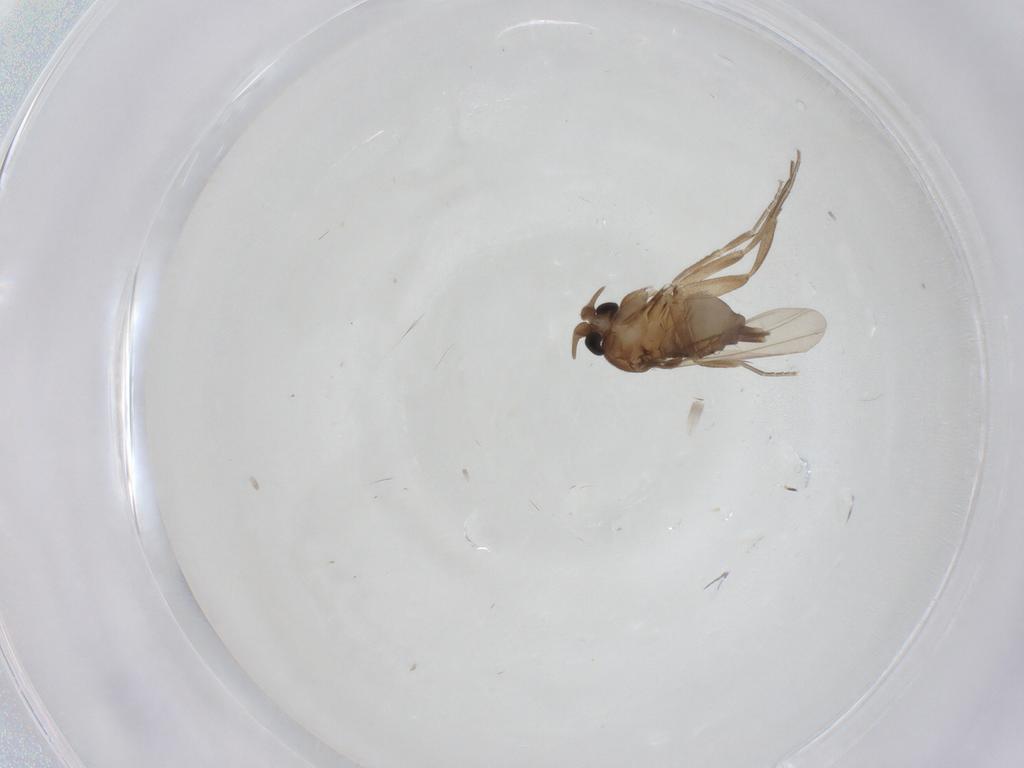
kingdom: Animalia
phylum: Arthropoda
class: Insecta
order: Diptera
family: Phoridae
